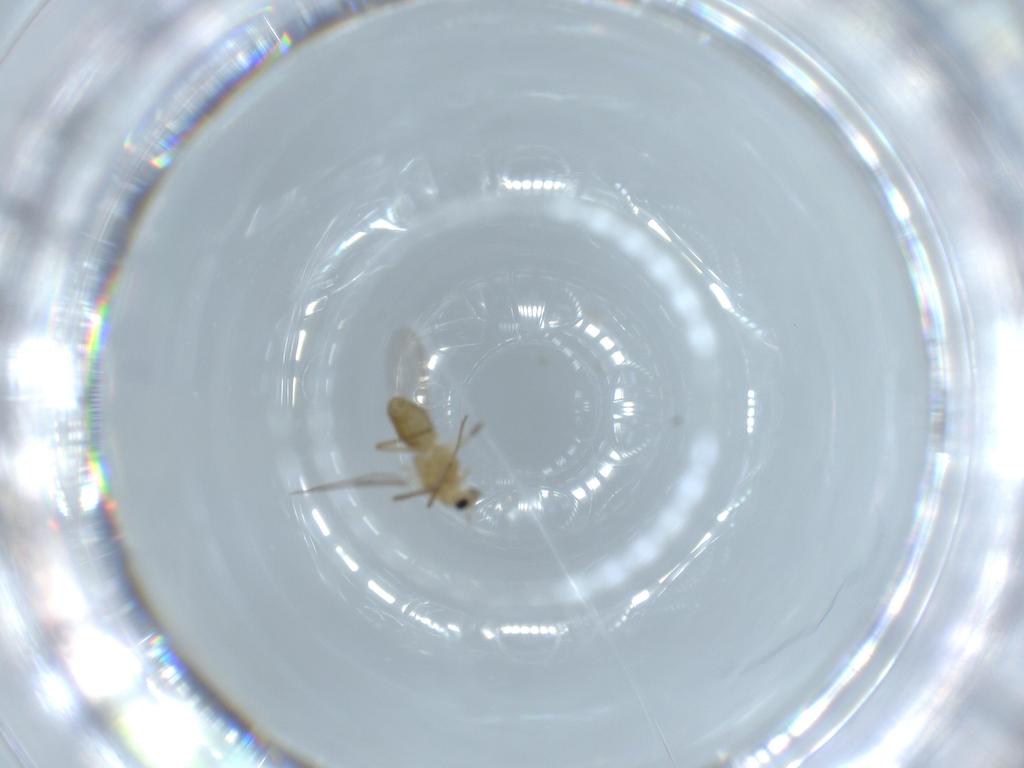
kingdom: Animalia
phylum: Arthropoda
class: Insecta
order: Diptera
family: Chironomidae
